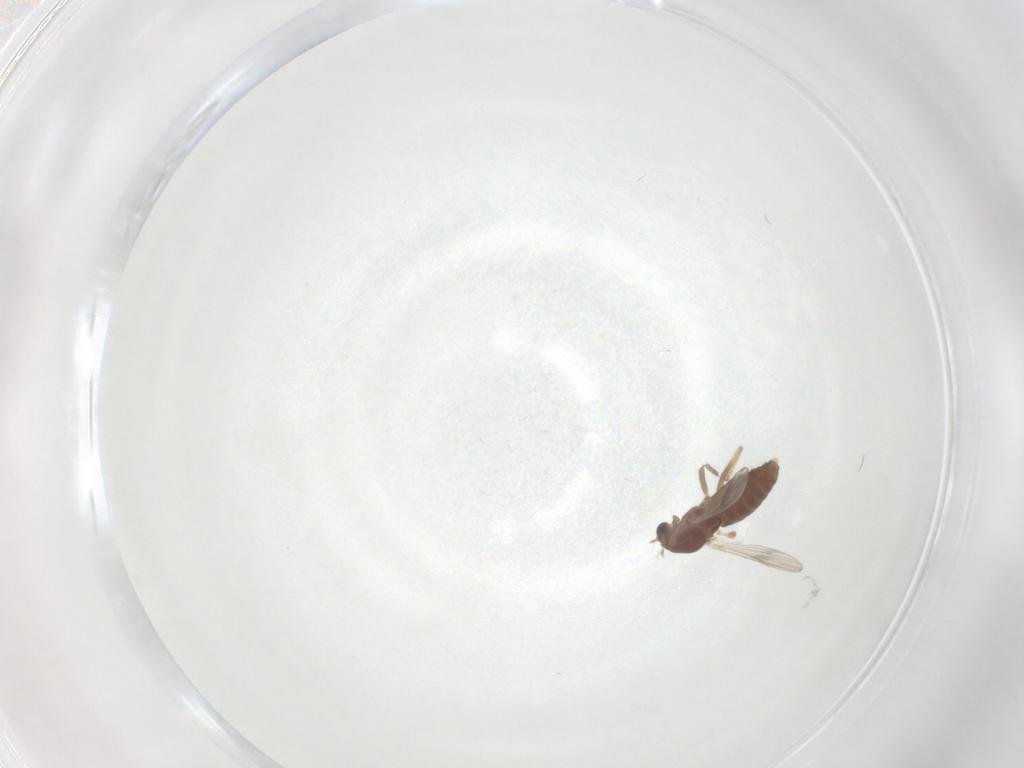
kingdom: Animalia
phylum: Arthropoda
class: Insecta
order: Diptera
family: Chironomidae
